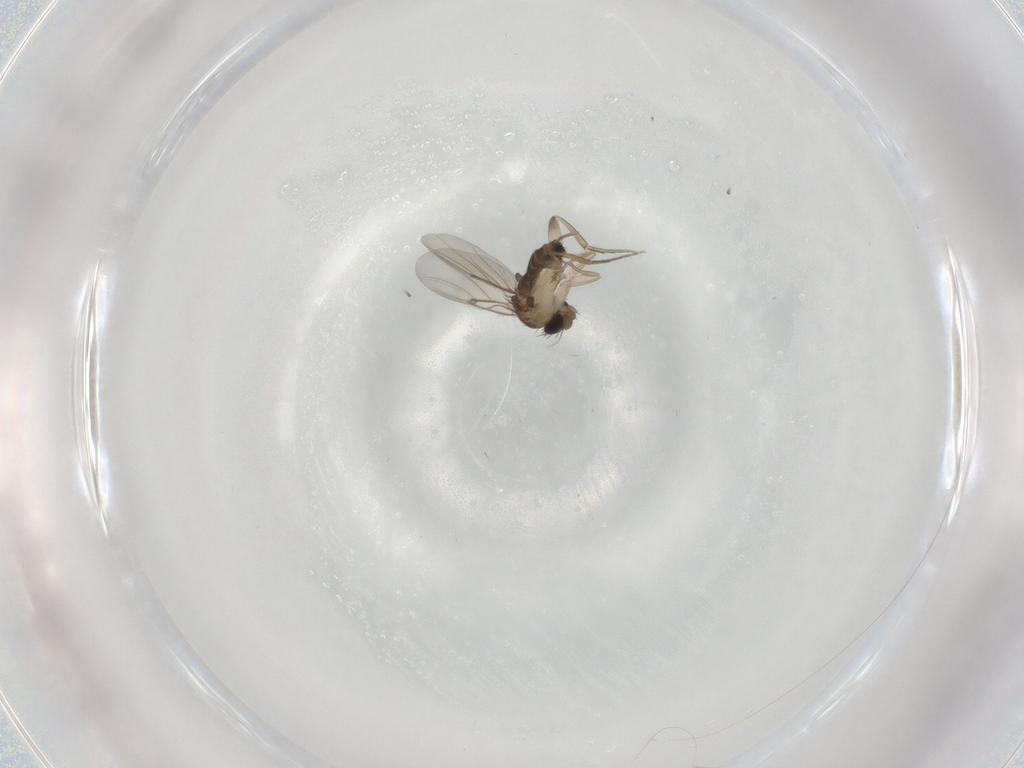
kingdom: Animalia
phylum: Arthropoda
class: Insecta
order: Diptera
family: Phoridae
